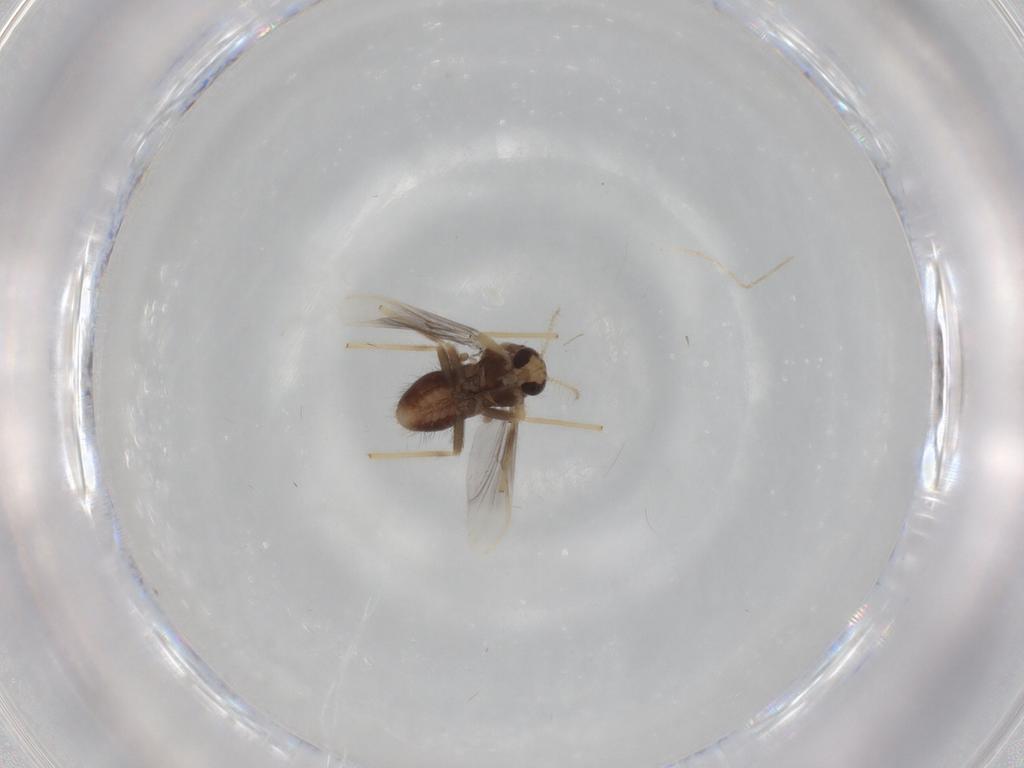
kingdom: Animalia
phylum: Arthropoda
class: Insecta
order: Diptera
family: Chironomidae
